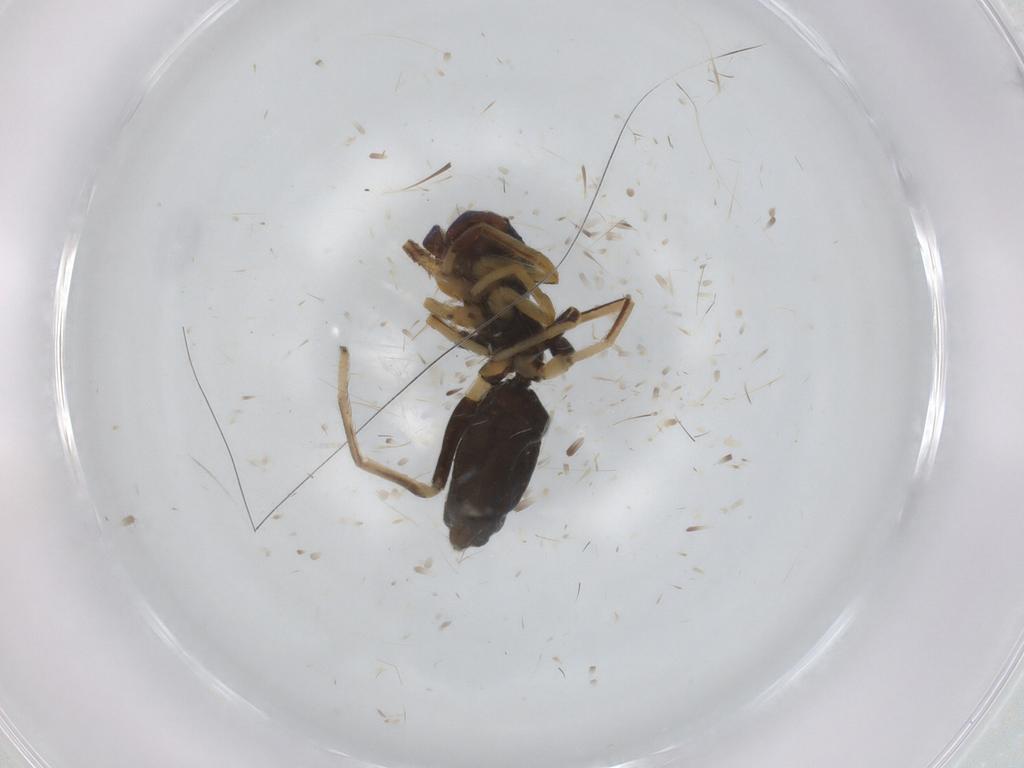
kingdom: Animalia
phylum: Arthropoda
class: Arachnida
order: Araneae
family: Salticidae
